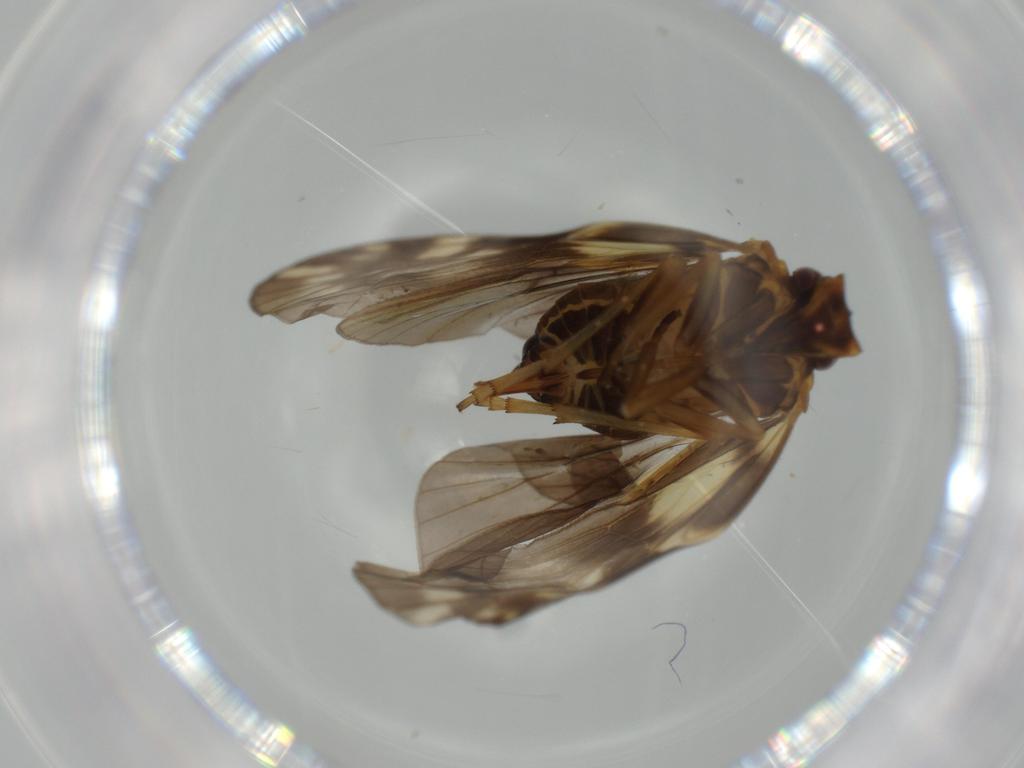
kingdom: Animalia
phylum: Arthropoda
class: Insecta
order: Hemiptera
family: Cixiidae
